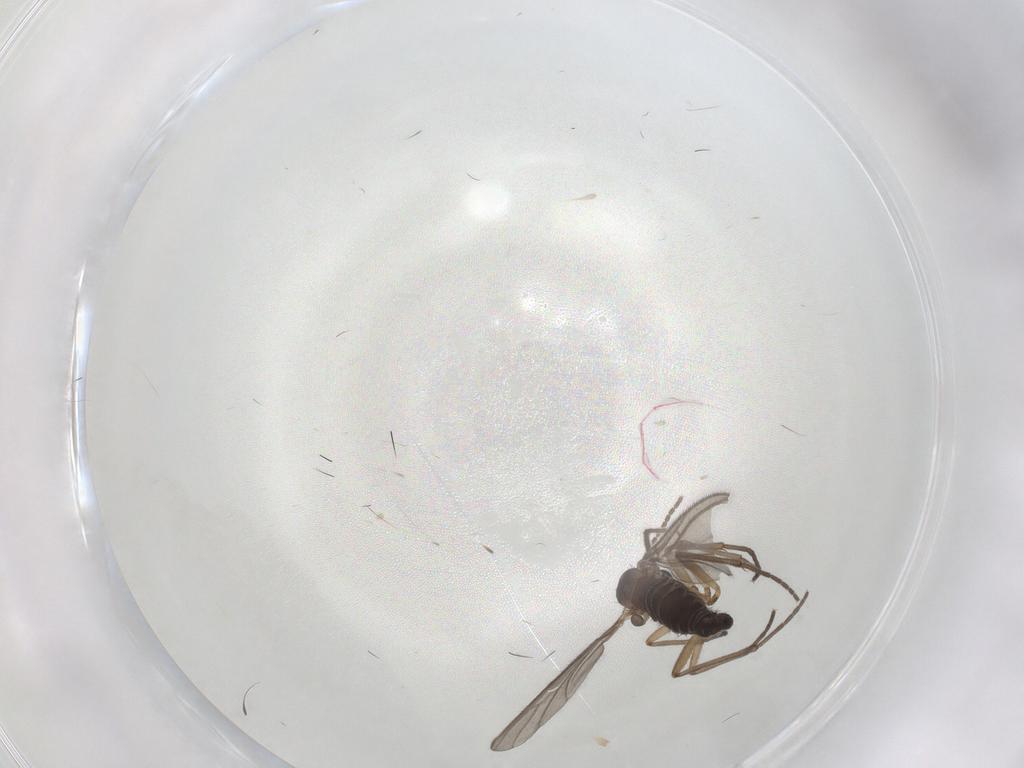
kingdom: Animalia
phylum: Arthropoda
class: Insecta
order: Diptera
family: Sciaridae
